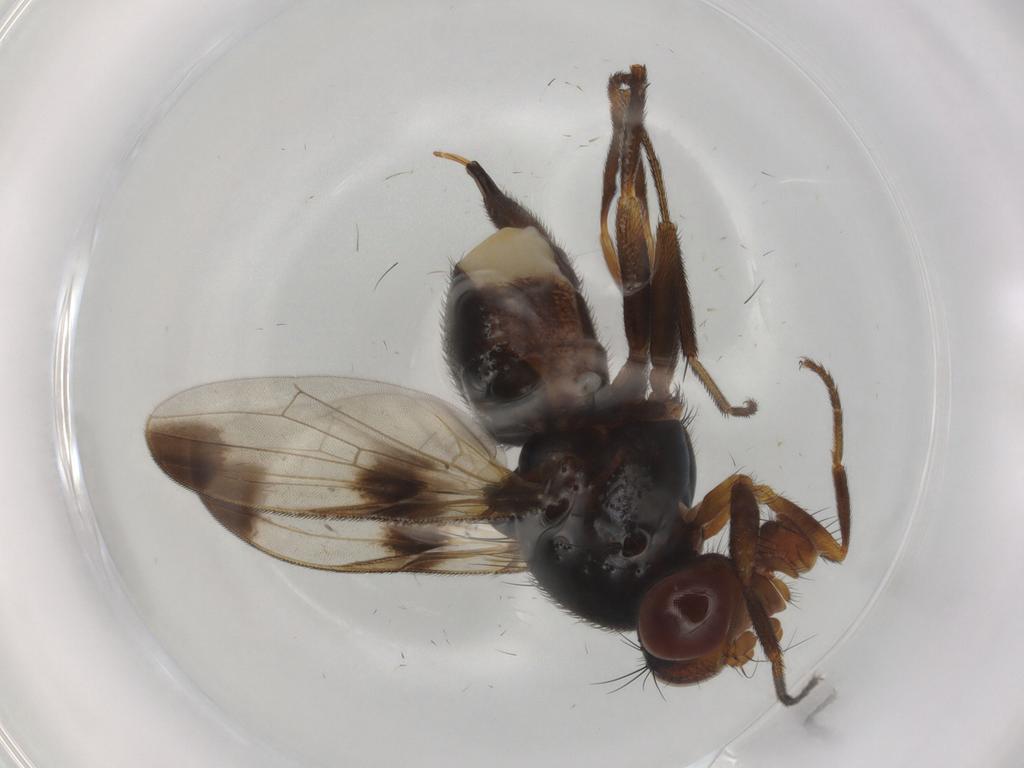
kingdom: Animalia
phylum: Arthropoda
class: Insecta
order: Diptera
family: Ulidiidae
